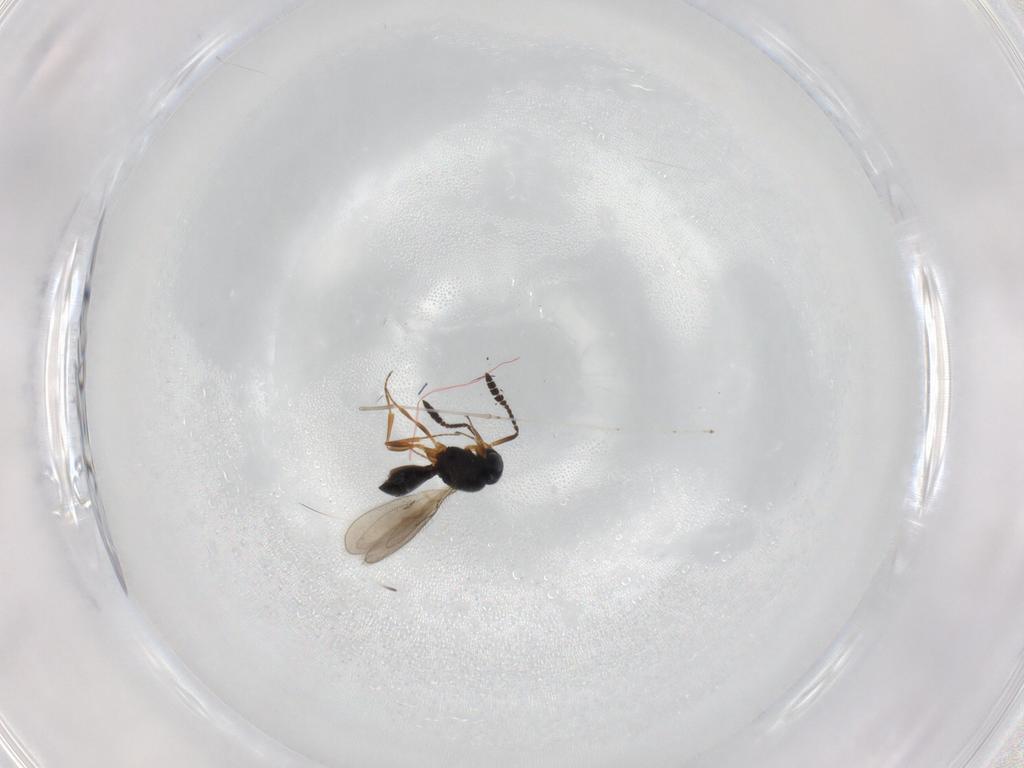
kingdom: Animalia
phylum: Arthropoda
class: Insecta
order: Hymenoptera
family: Scelionidae
